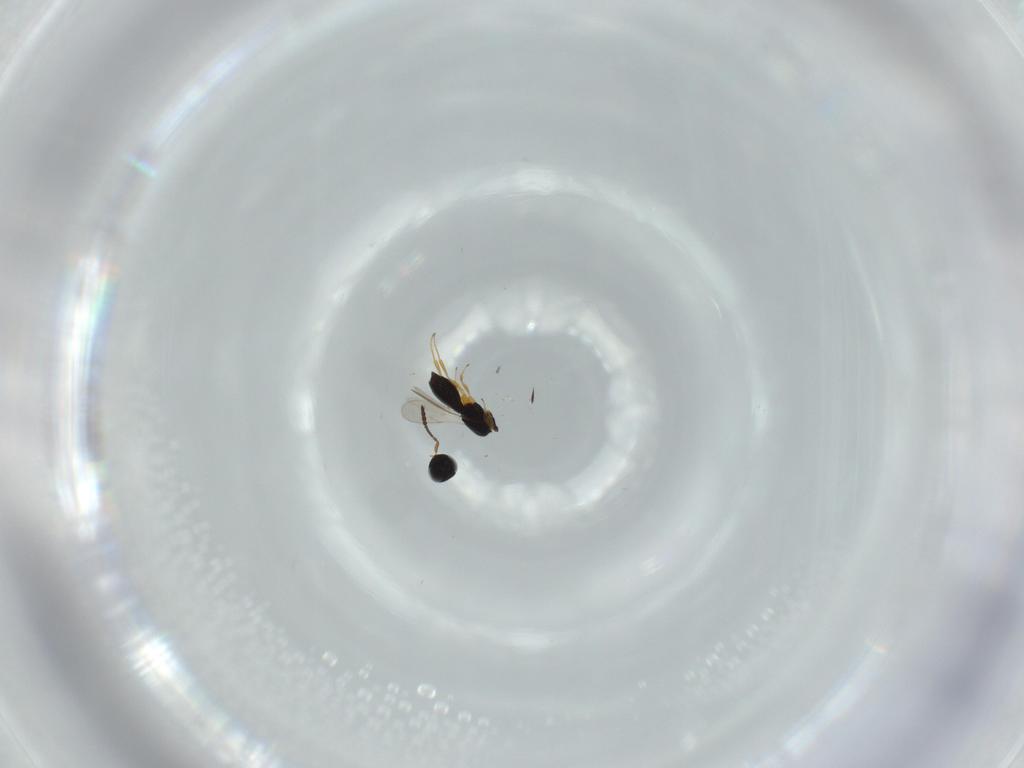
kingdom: Animalia
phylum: Arthropoda
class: Insecta
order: Hymenoptera
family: Scelionidae
